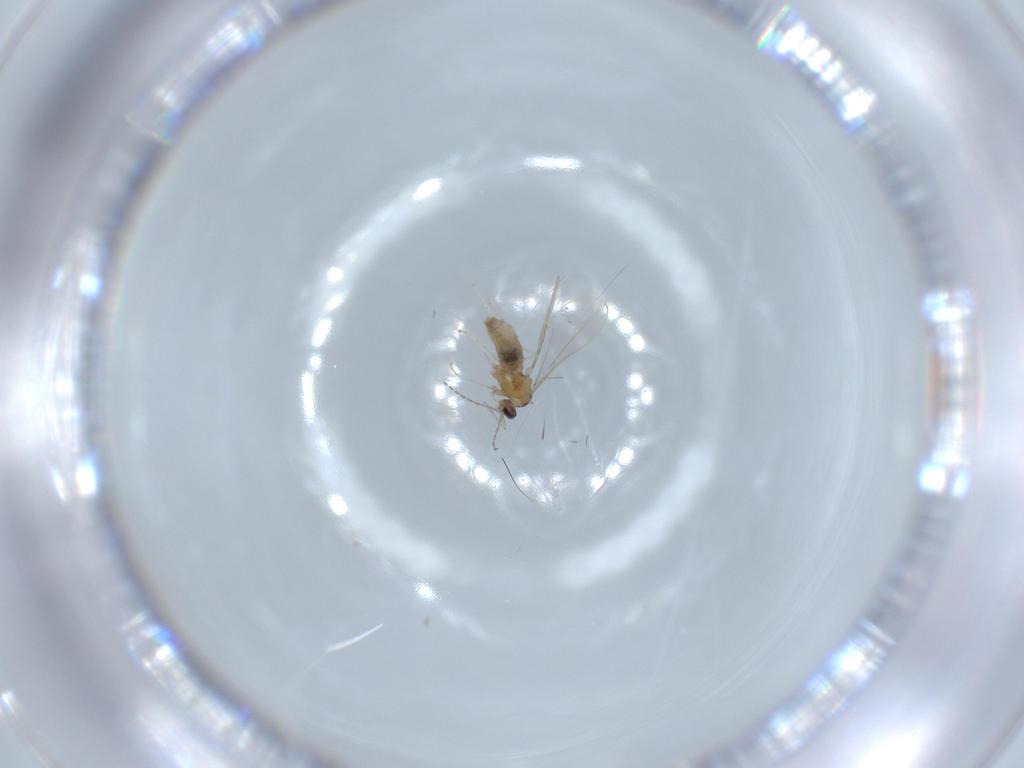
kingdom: Animalia
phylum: Arthropoda
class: Insecta
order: Diptera
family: Cecidomyiidae
